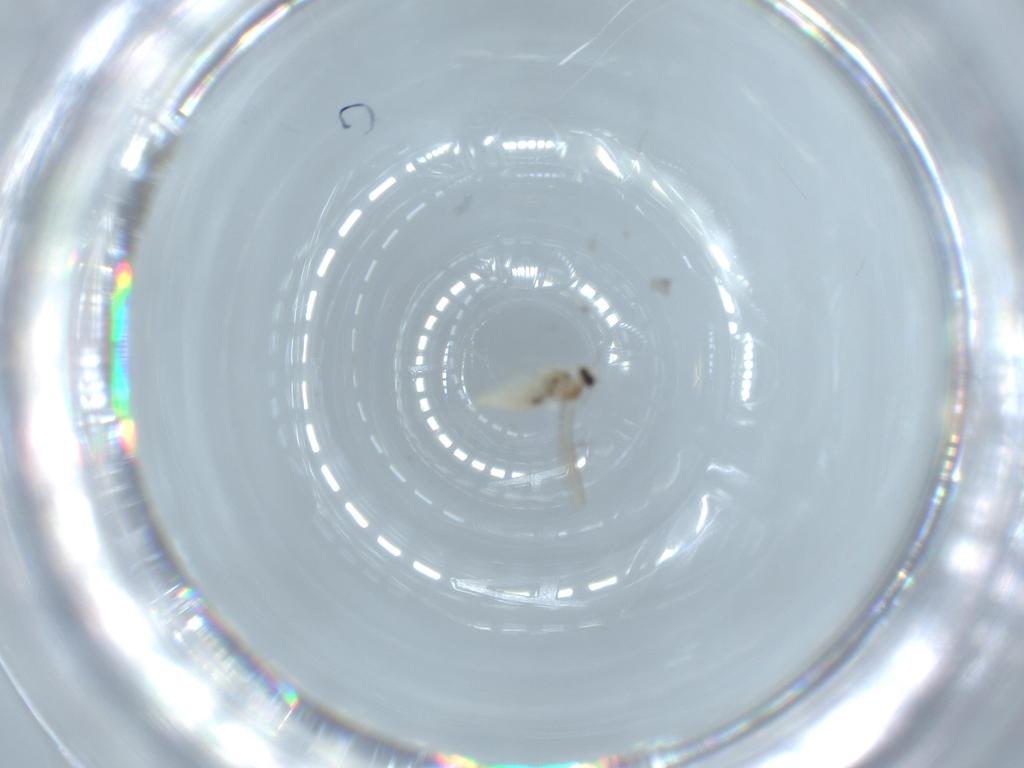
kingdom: Animalia
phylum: Arthropoda
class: Insecta
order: Diptera
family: Cecidomyiidae
